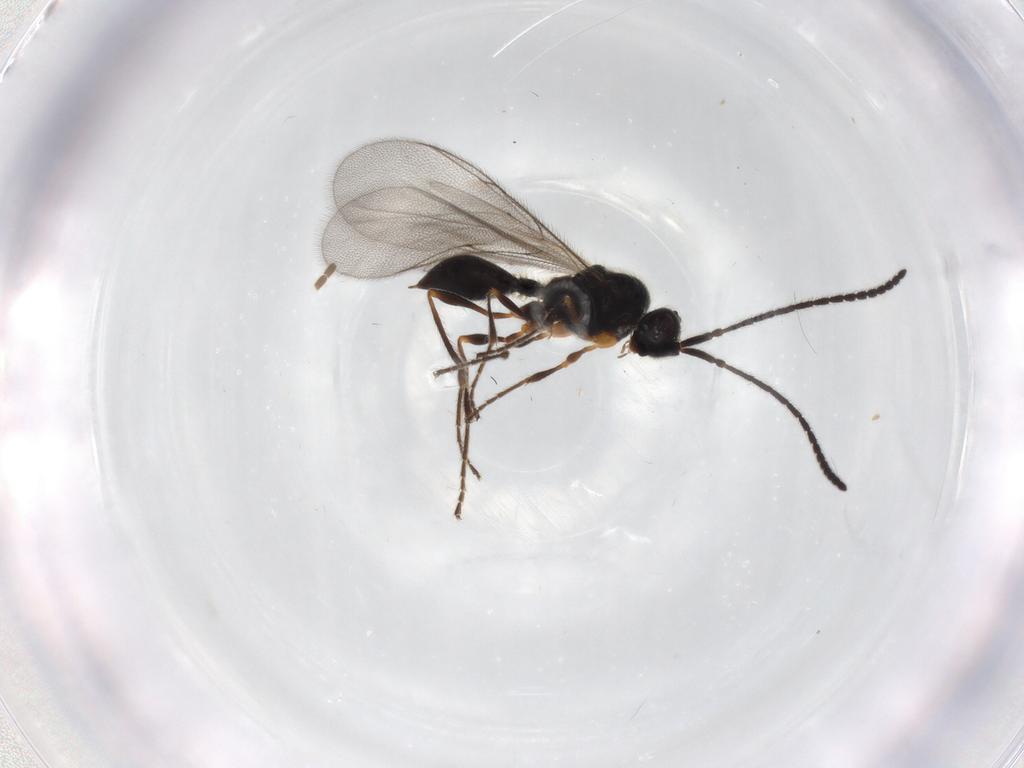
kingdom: Animalia
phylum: Arthropoda
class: Insecta
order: Hymenoptera
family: Diapriidae
